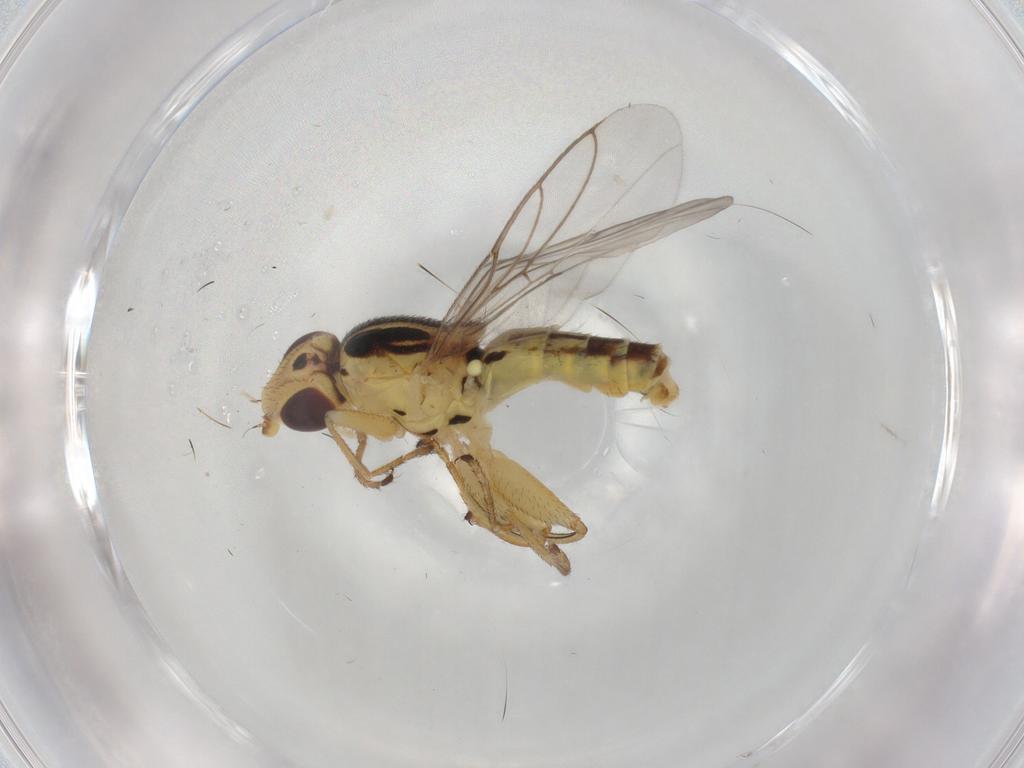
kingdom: Animalia
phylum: Arthropoda
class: Insecta
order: Diptera
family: Chloropidae
